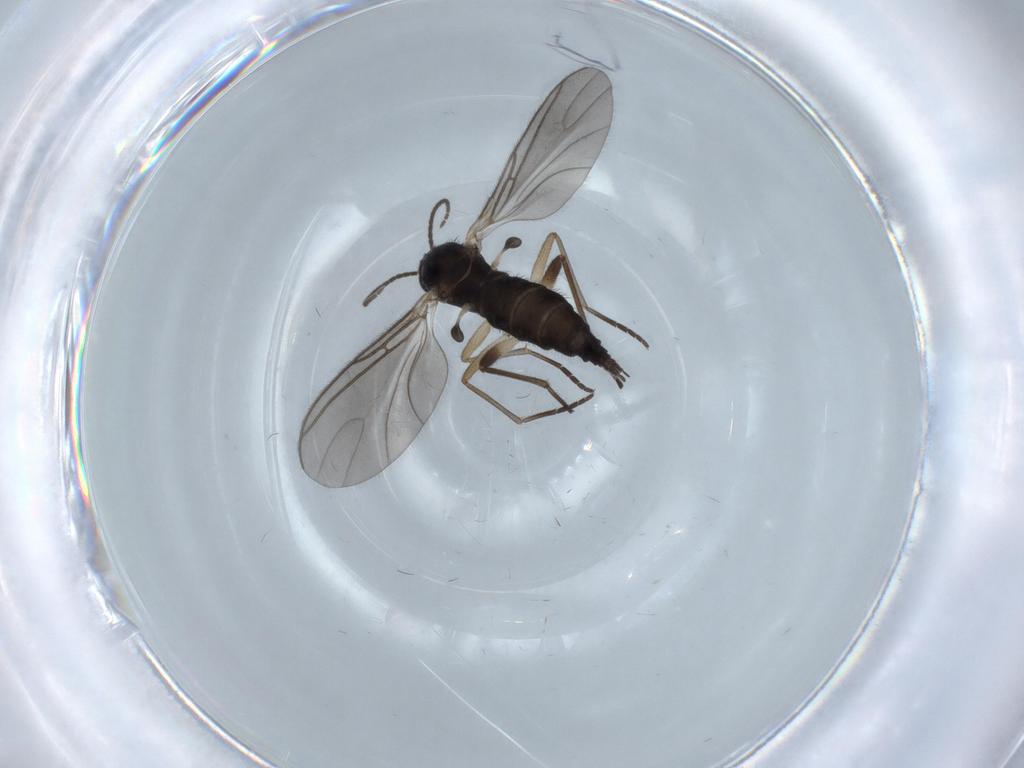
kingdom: Animalia
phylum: Arthropoda
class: Insecta
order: Diptera
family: Sciaridae
